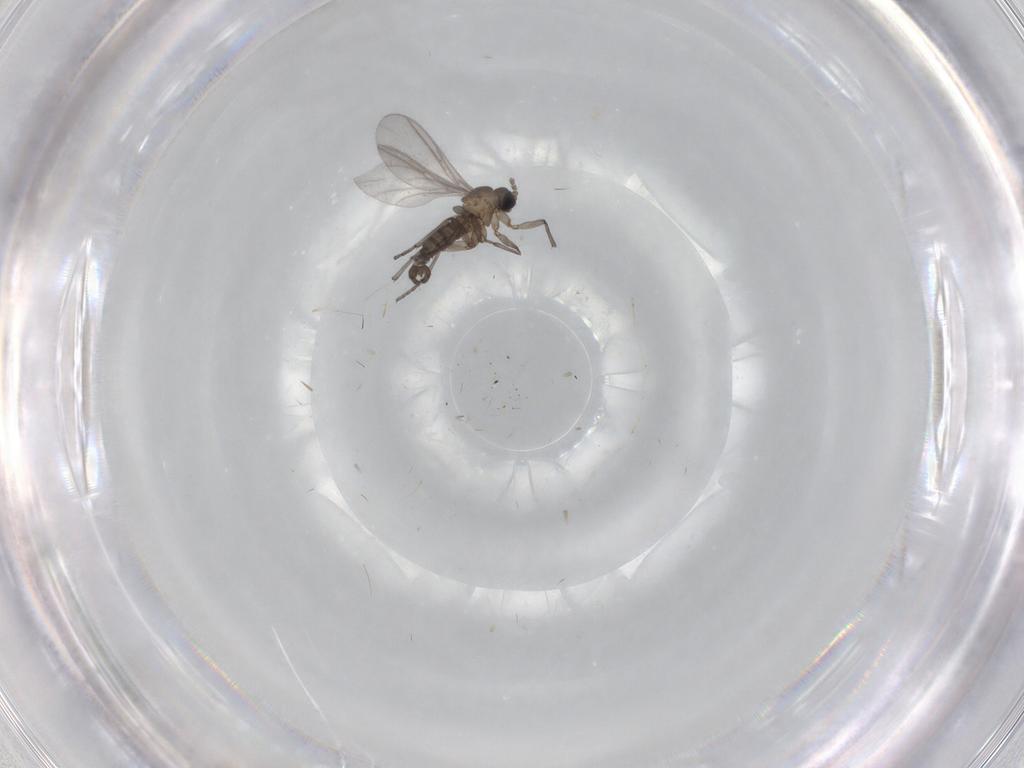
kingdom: Animalia
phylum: Arthropoda
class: Insecta
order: Diptera
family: Sciaridae
